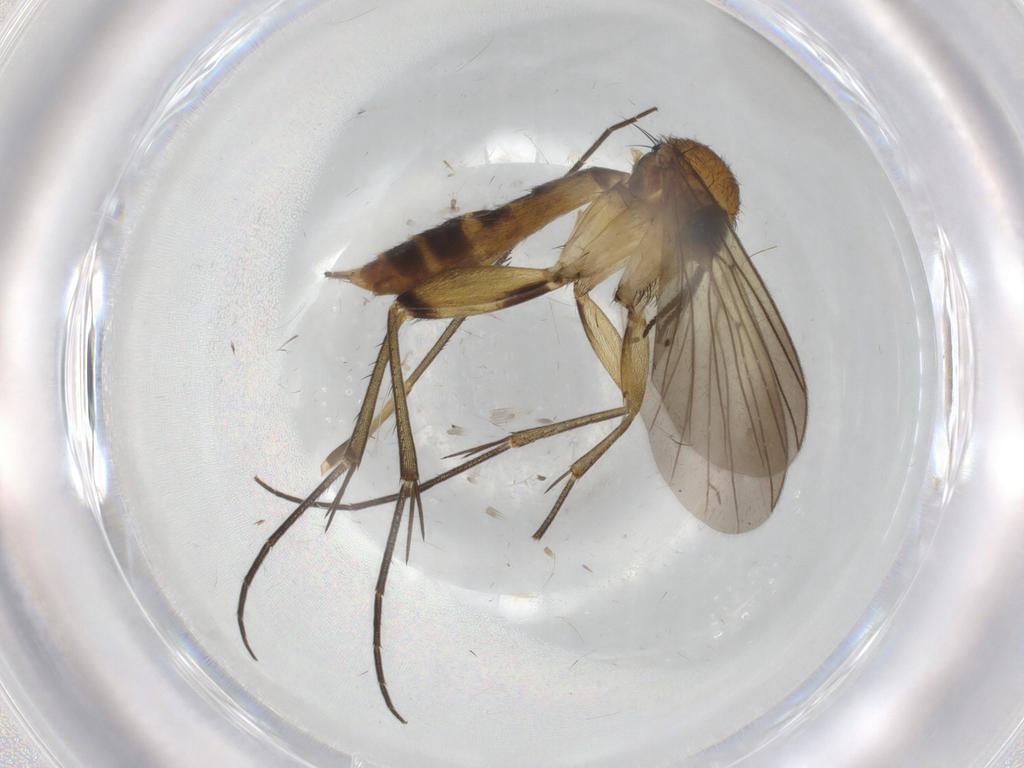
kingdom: Animalia
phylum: Arthropoda
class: Insecta
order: Diptera
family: Mycetophilidae
